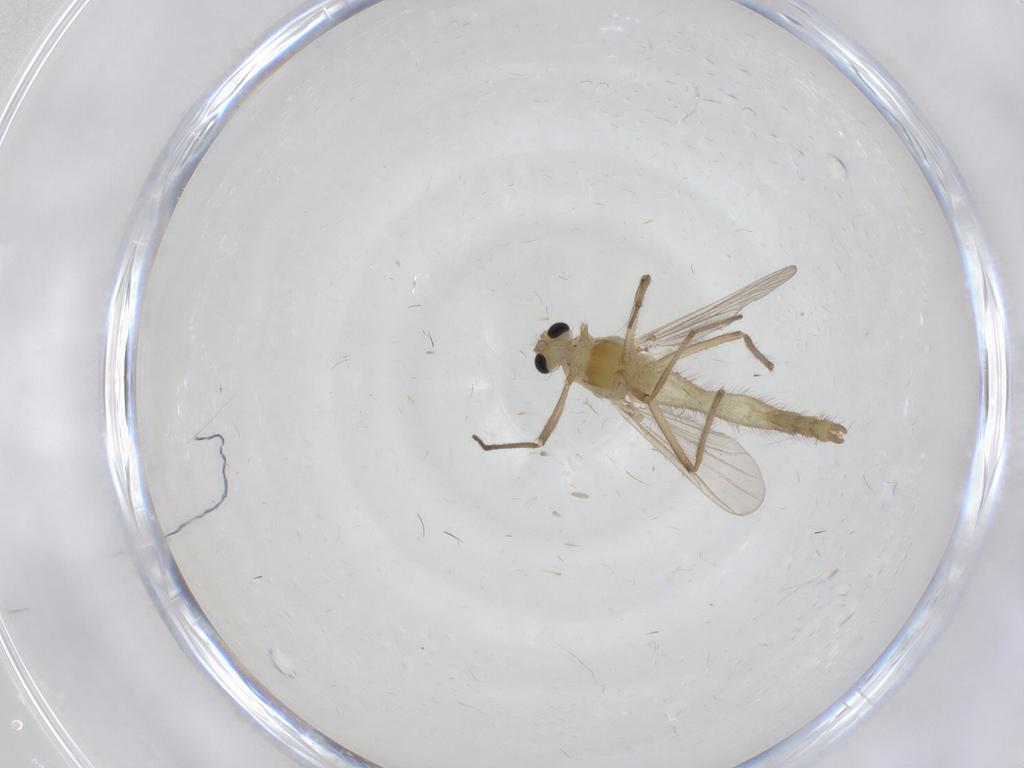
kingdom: Animalia
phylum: Arthropoda
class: Insecta
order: Diptera
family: Chironomidae
